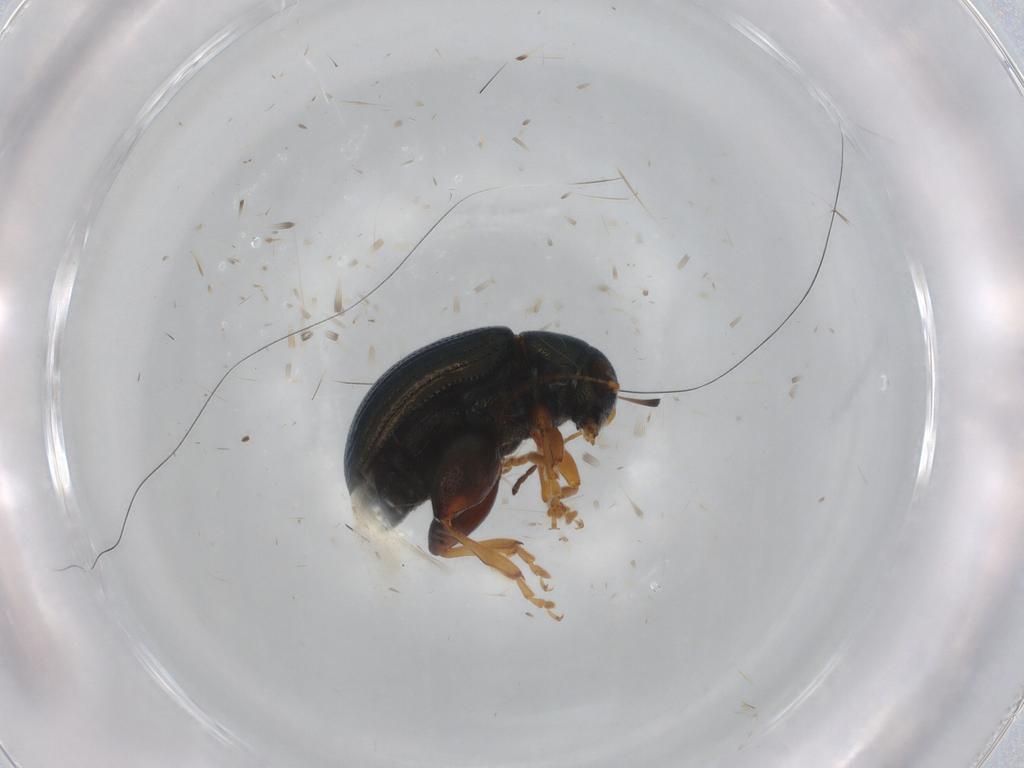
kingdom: Animalia
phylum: Arthropoda
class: Insecta
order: Coleoptera
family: Chrysomelidae
